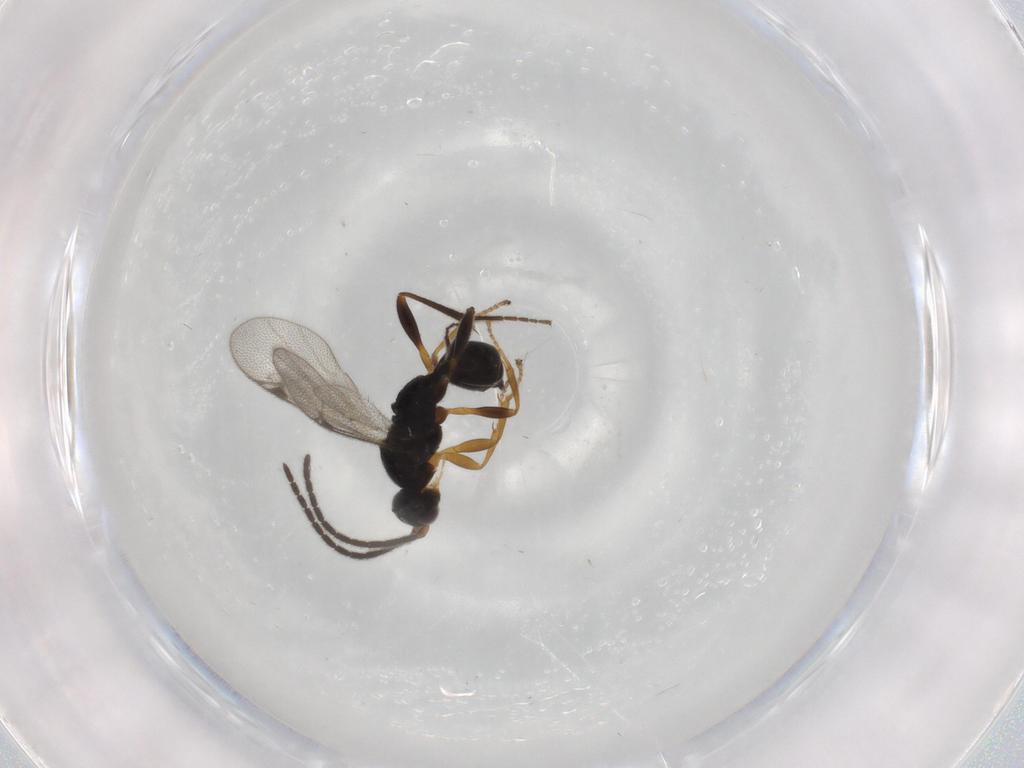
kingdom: Animalia
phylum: Arthropoda
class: Insecta
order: Hymenoptera
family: Proctotrupidae
